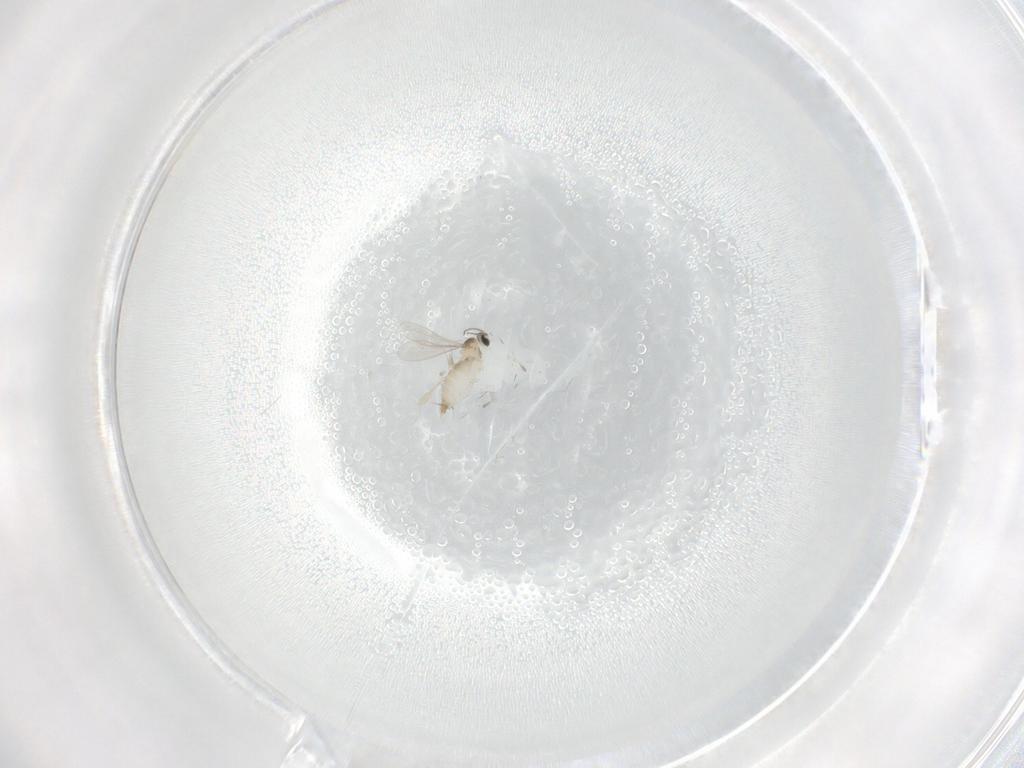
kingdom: Animalia
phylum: Arthropoda
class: Insecta
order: Diptera
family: Cecidomyiidae
